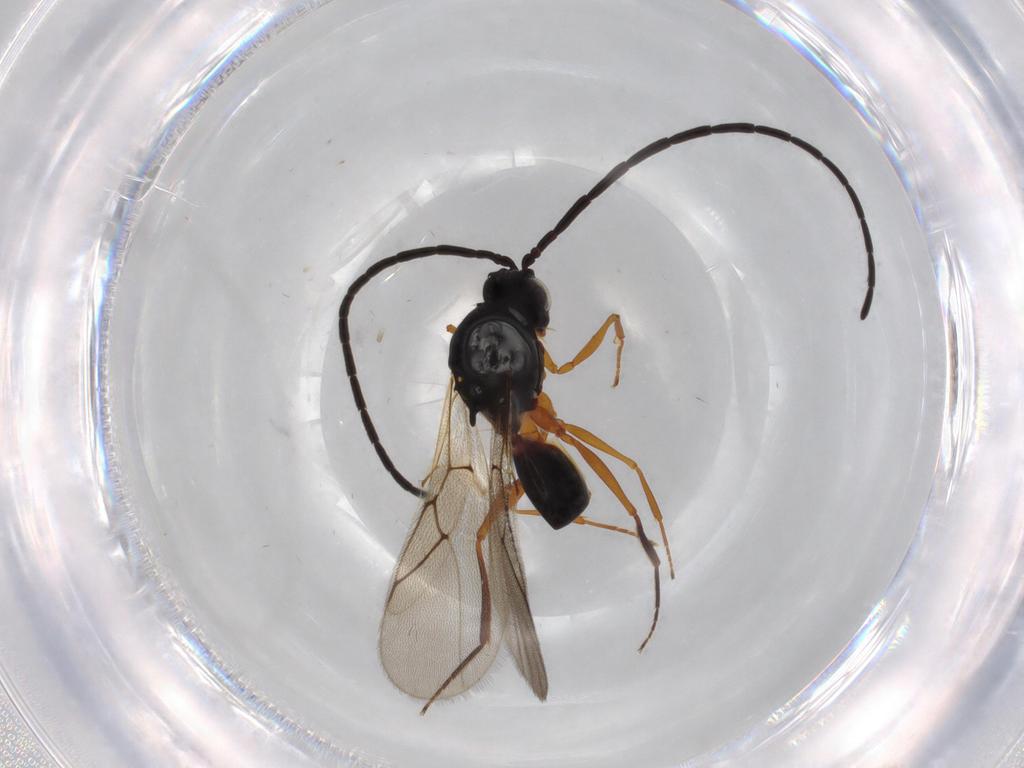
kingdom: Animalia
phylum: Arthropoda
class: Insecta
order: Hymenoptera
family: Figitidae
